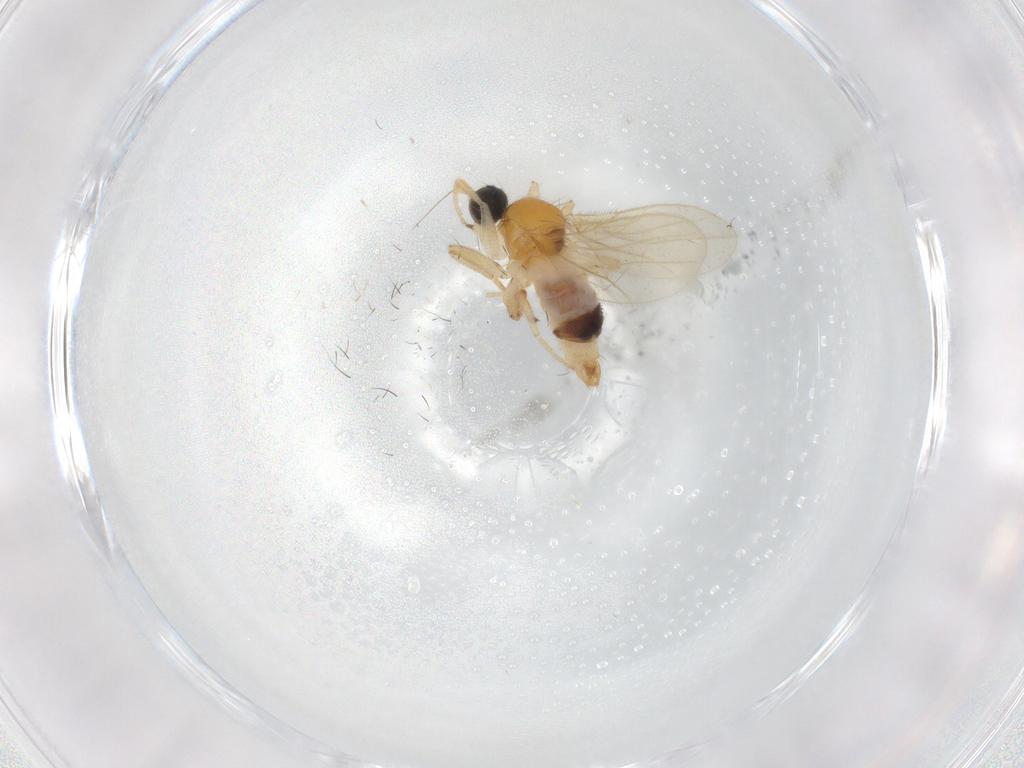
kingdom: Animalia
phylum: Arthropoda
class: Insecta
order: Diptera
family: Hybotidae
